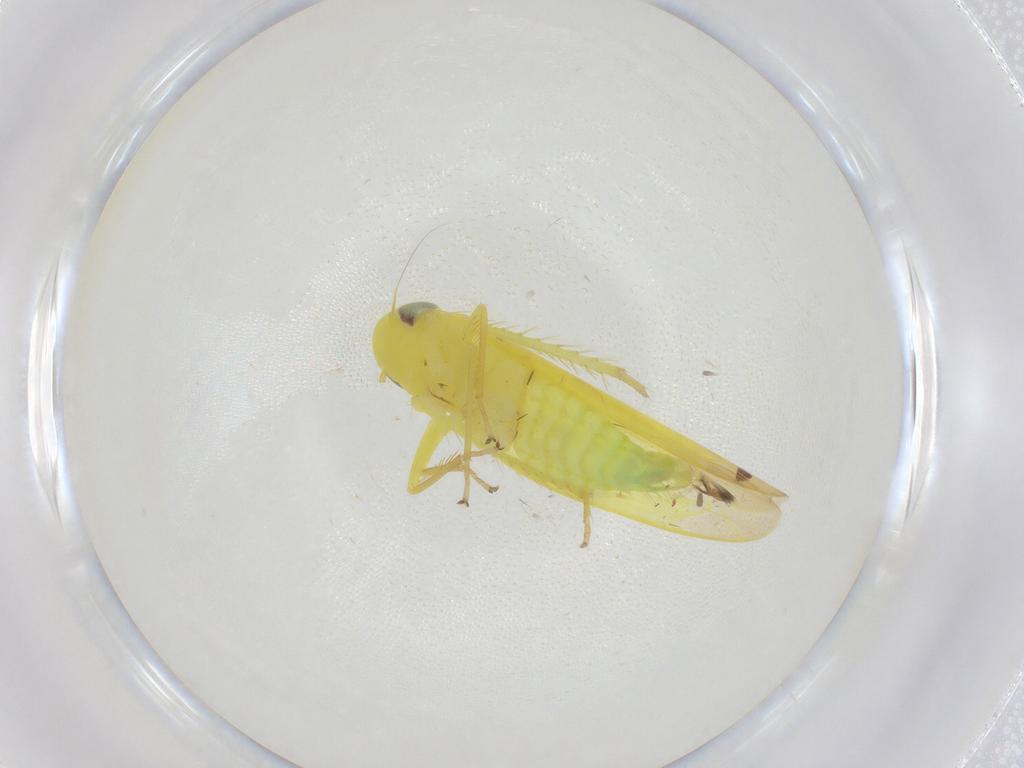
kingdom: Animalia
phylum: Arthropoda
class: Insecta
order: Hemiptera
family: Cicadellidae
